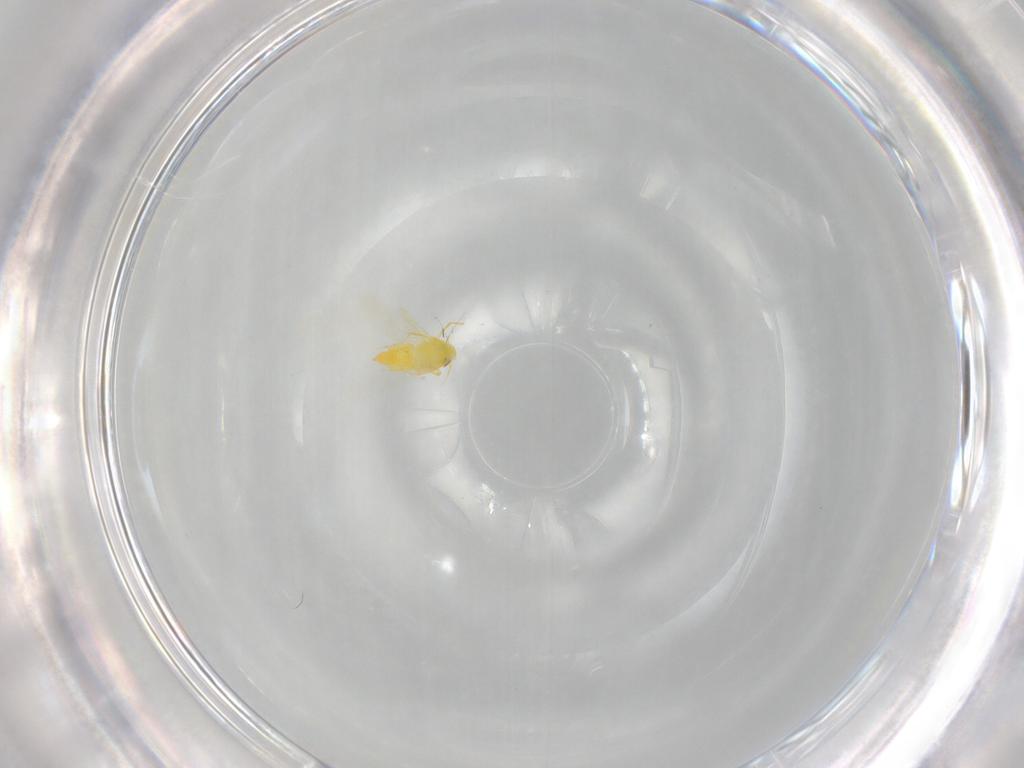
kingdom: Animalia
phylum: Arthropoda
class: Insecta
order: Hemiptera
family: Aleyrodidae
